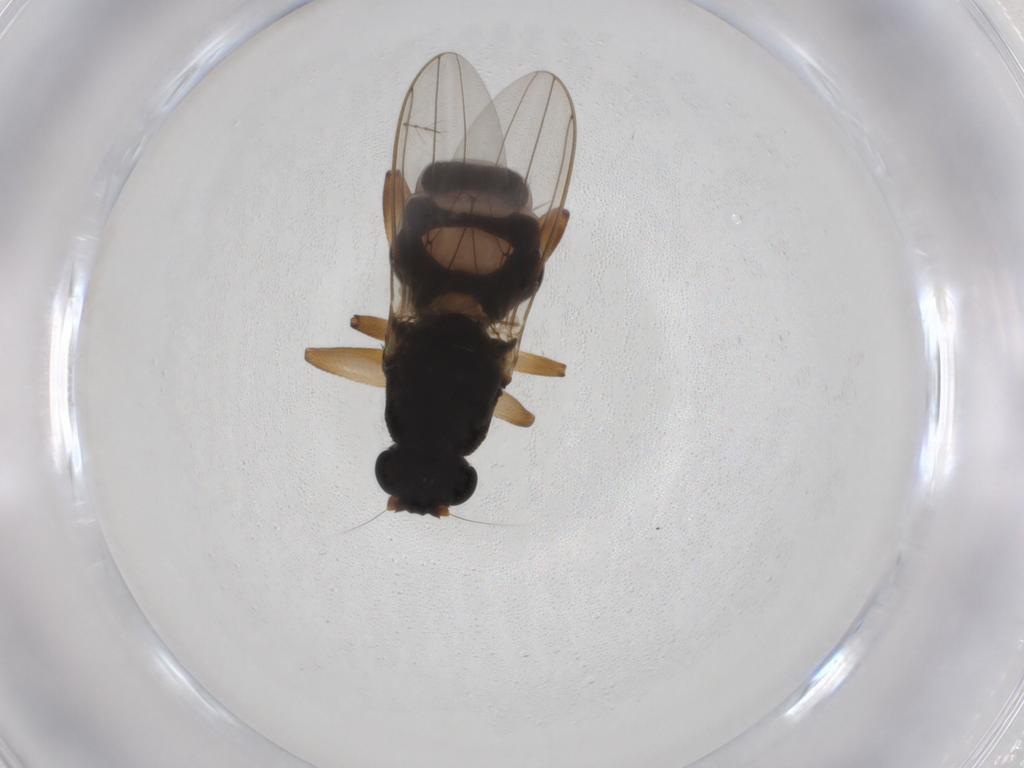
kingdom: Animalia
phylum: Arthropoda
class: Insecta
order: Diptera
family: Sphaeroceridae
